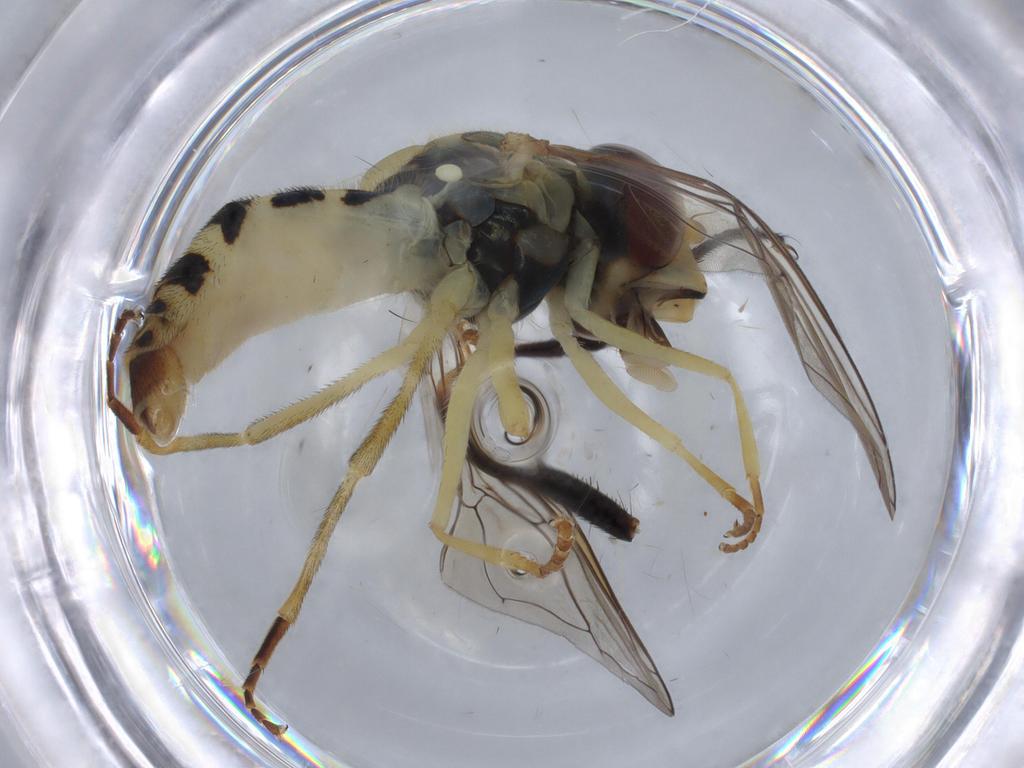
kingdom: Animalia
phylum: Arthropoda
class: Insecta
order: Diptera
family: Syrphidae
